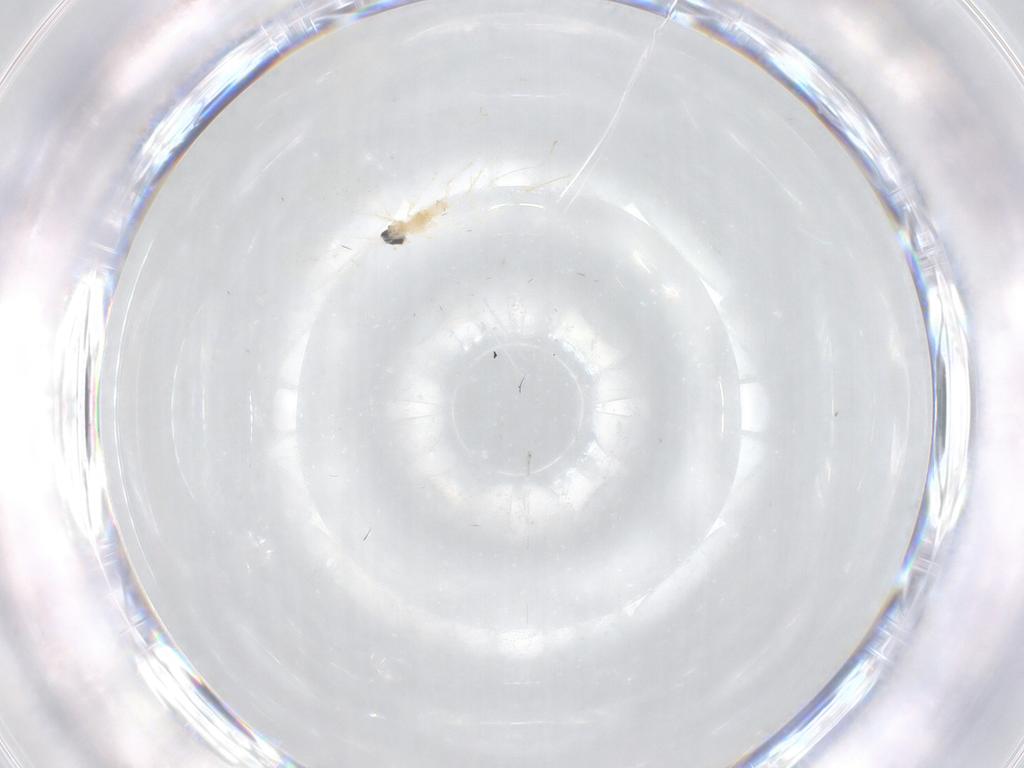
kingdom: Animalia
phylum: Arthropoda
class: Insecta
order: Diptera
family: Cecidomyiidae
